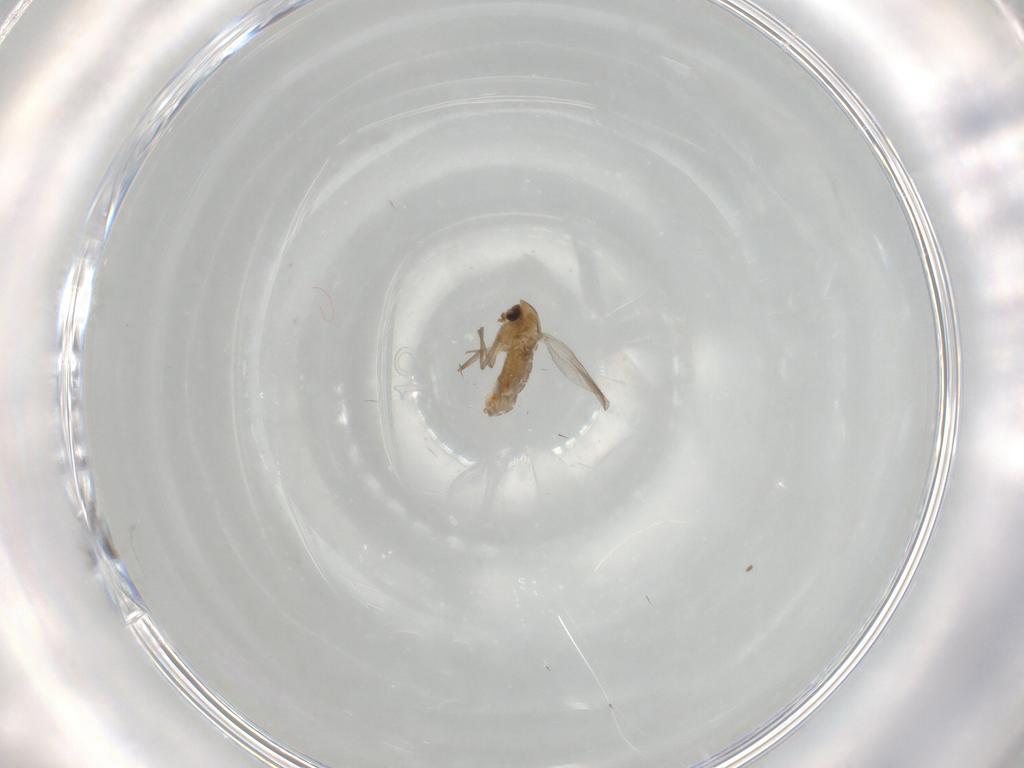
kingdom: Animalia
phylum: Arthropoda
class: Insecta
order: Diptera
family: Chironomidae
